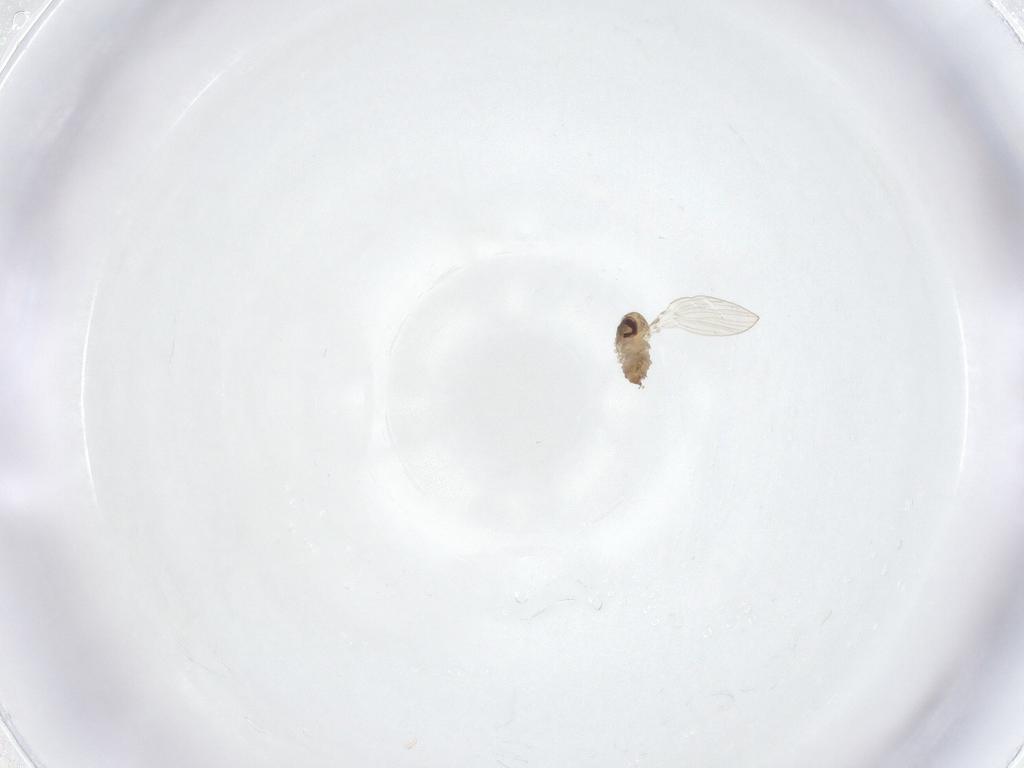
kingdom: Animalia
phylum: Arthropoda
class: Insecta
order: Diptera
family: Psychodidae
